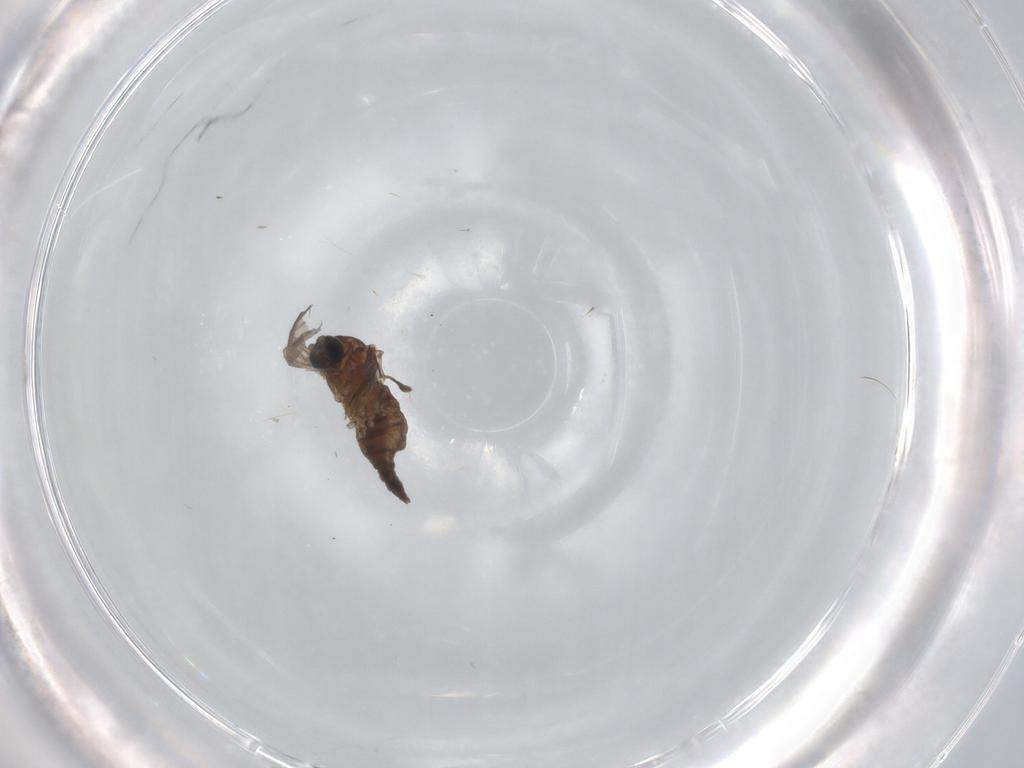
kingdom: Animalia
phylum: Arthropoda
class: Insecta
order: Diptera
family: Sciaridae
